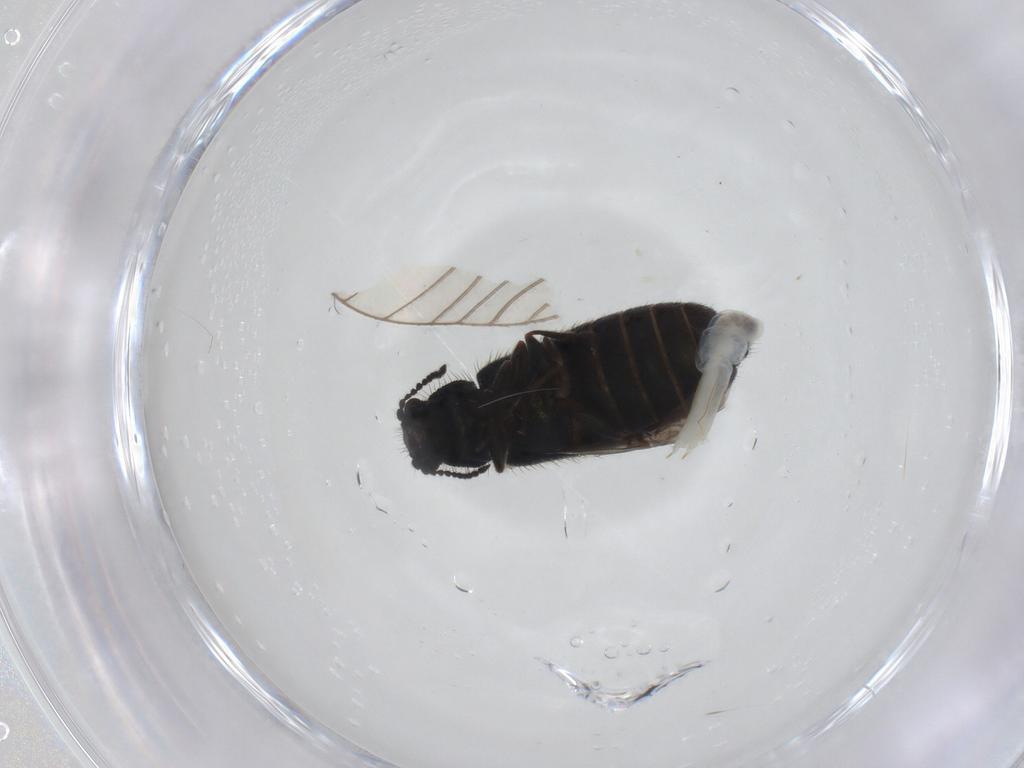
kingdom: Animalia
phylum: Arthropoda
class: Insecta
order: Coleoptera
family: Melyridae
